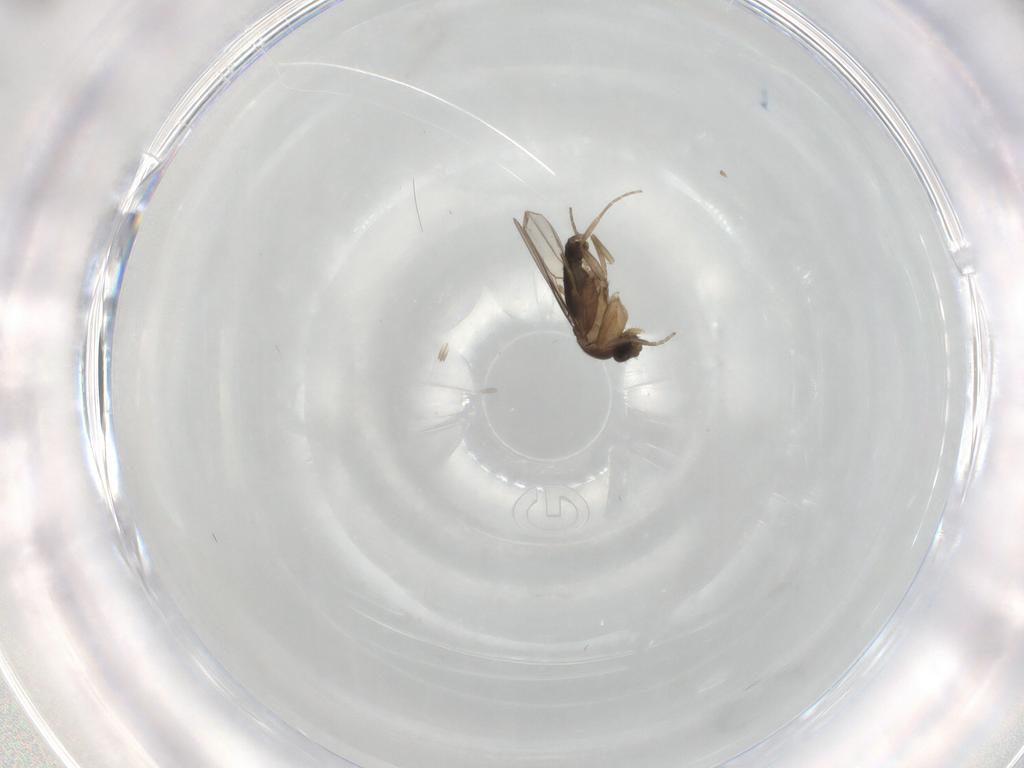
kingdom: Animalia
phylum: Arthropoda
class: Insecta
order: Diptera
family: Phoridae
